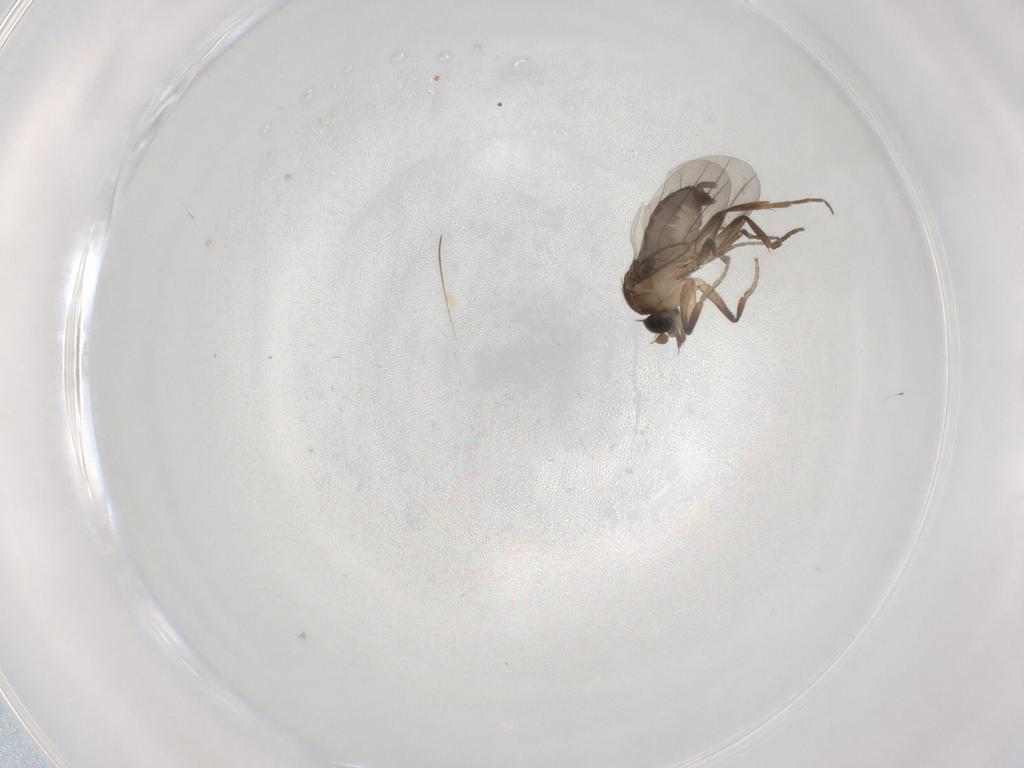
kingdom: Animalia
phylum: Arthropoda
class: Insecta
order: Diptera
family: Phoridae
